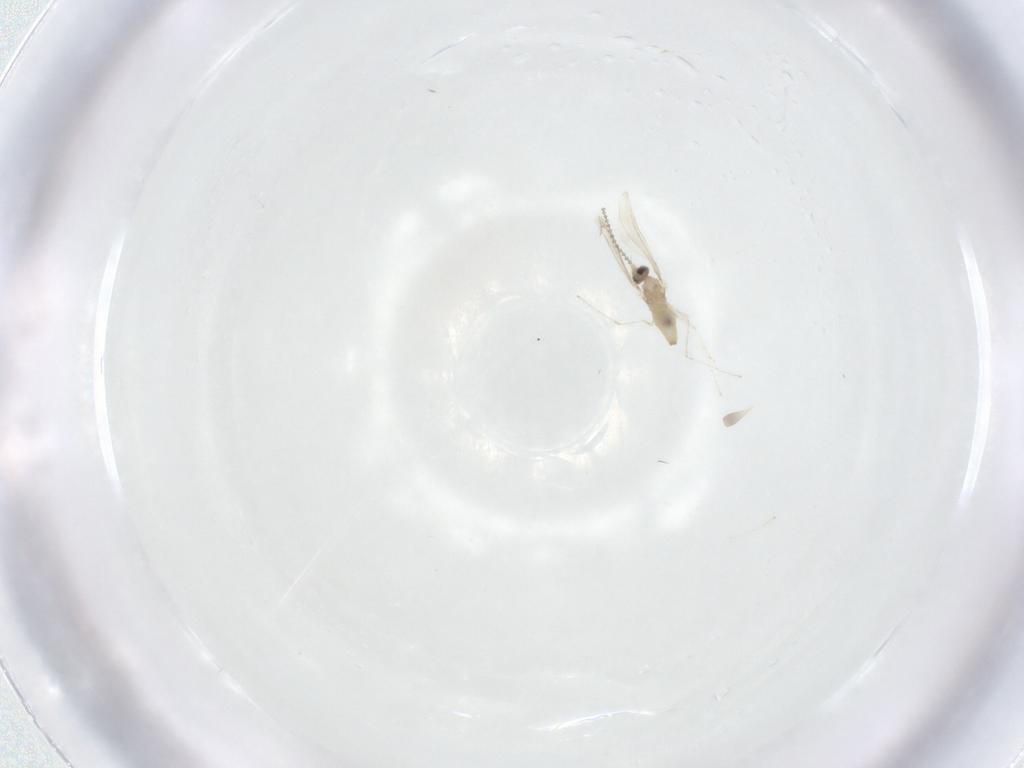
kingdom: Animalia
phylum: Arthropoda
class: Insecta
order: Diptera
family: Cecidomyiidae
